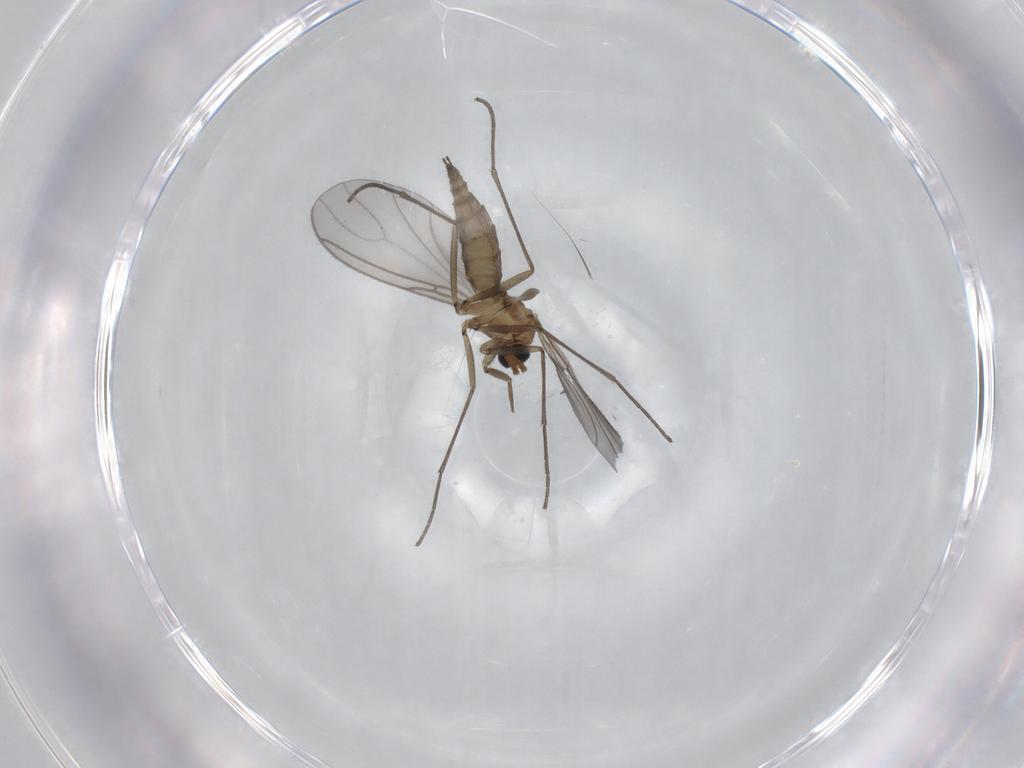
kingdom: Animalia
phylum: Arthropoda
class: Insecta
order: Diptera
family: Sciaridae
